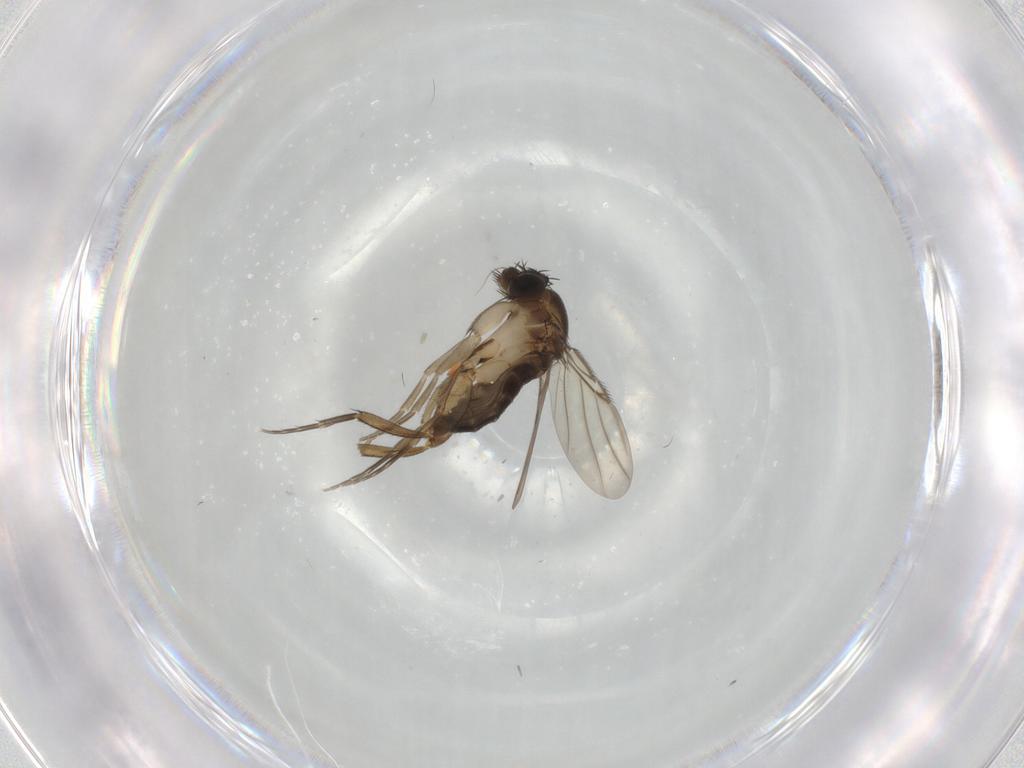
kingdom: Animalia
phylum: Arthropoda
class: Insecta
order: Diptera
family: Phoridae
